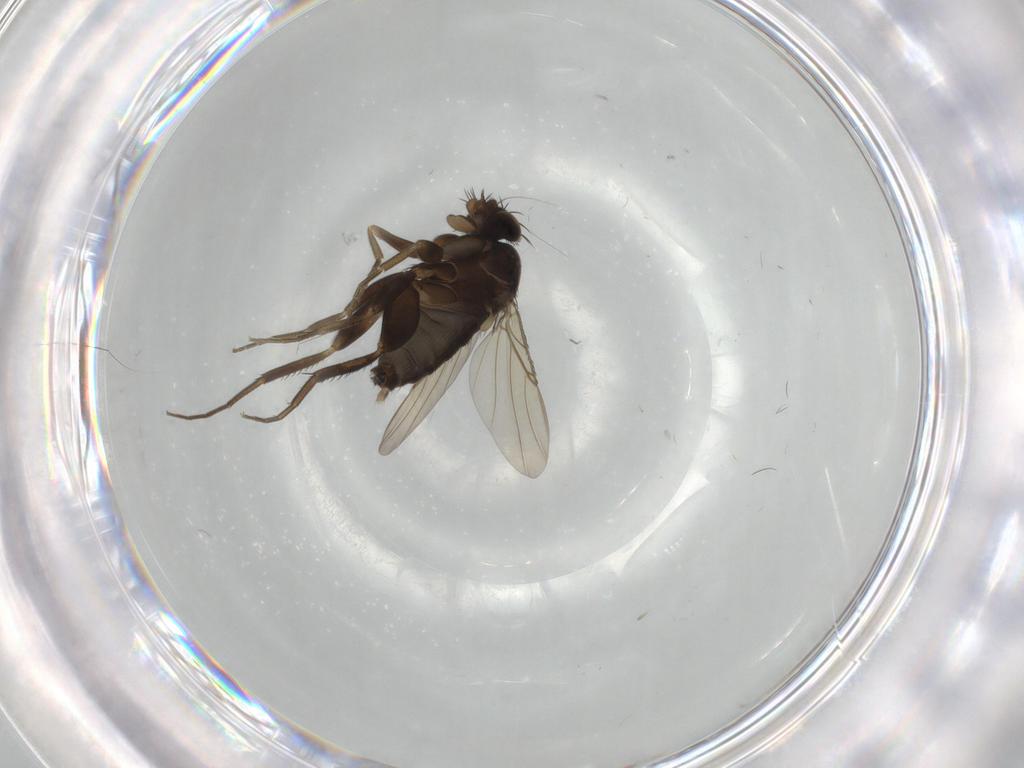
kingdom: Animalia
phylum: Arthropoda
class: Insecta
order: Diptera
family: Phoridae
